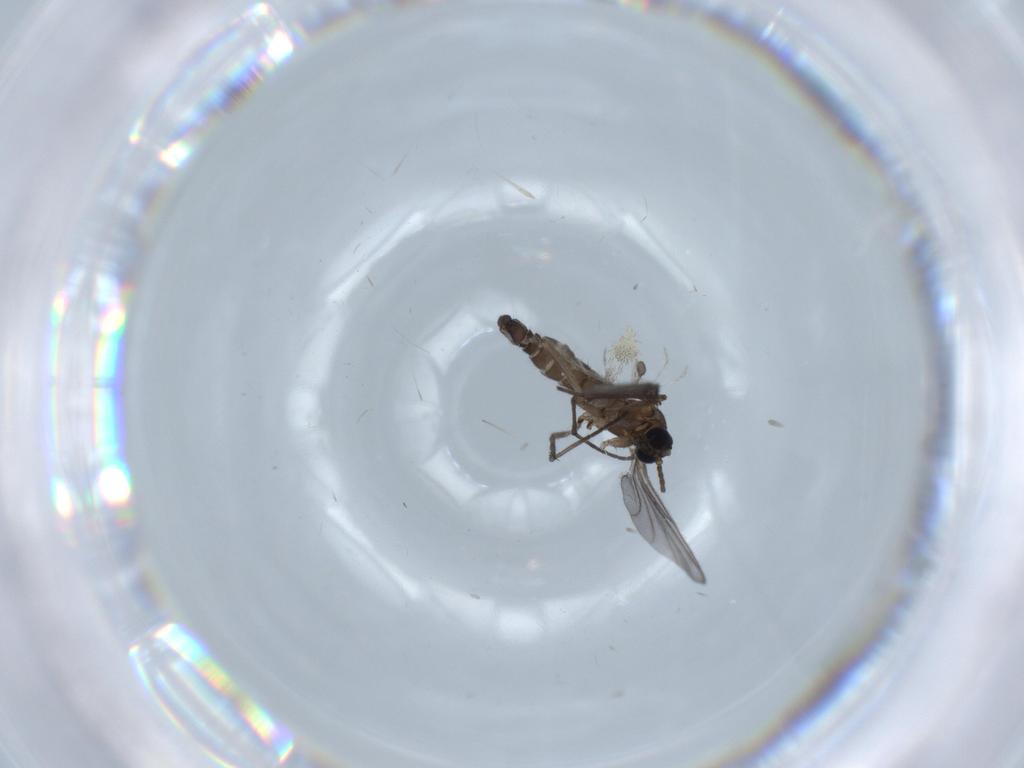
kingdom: Animalia
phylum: Arthropoda
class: Insecta
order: Diptera
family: Sciaridae
